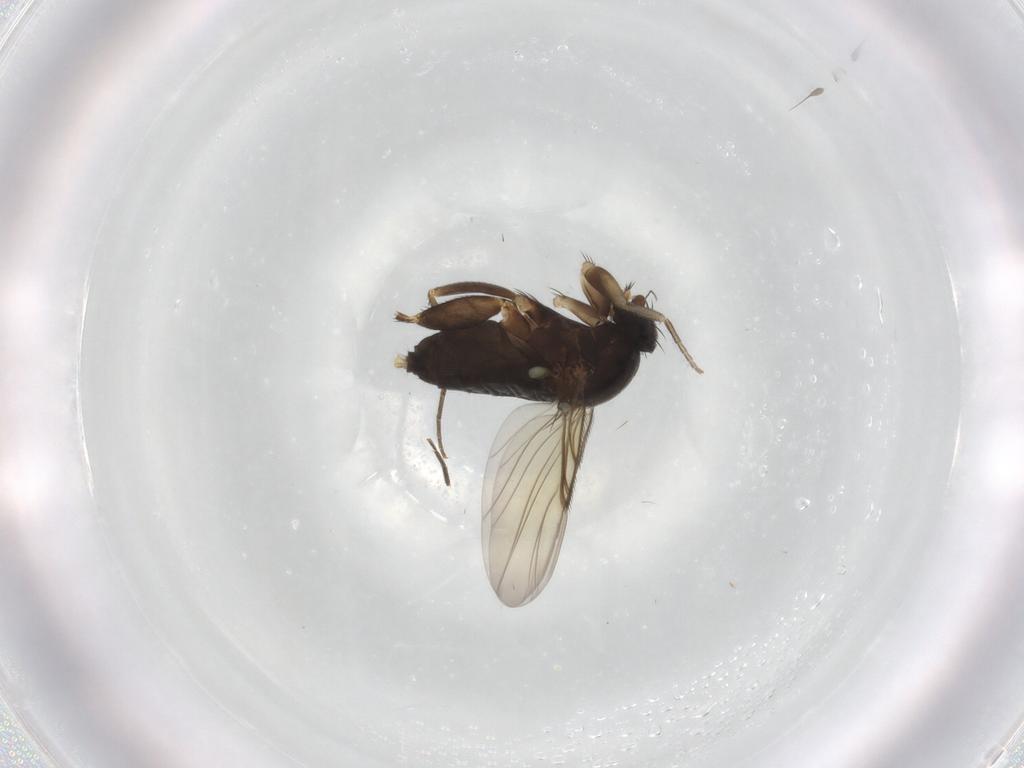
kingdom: Animalia
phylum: Arthropoda
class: Insecta
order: Diptera
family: Phoridae
